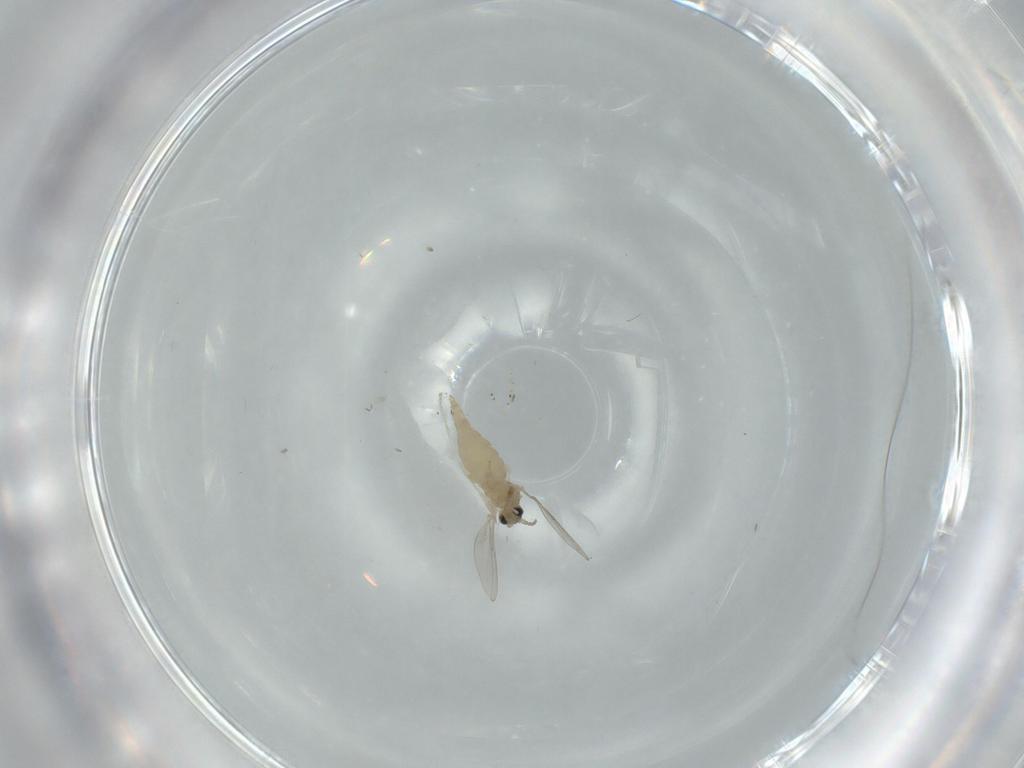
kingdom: Animalia
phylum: Arthropoda
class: Insecta
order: Diptera
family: Cecidomyiidae
